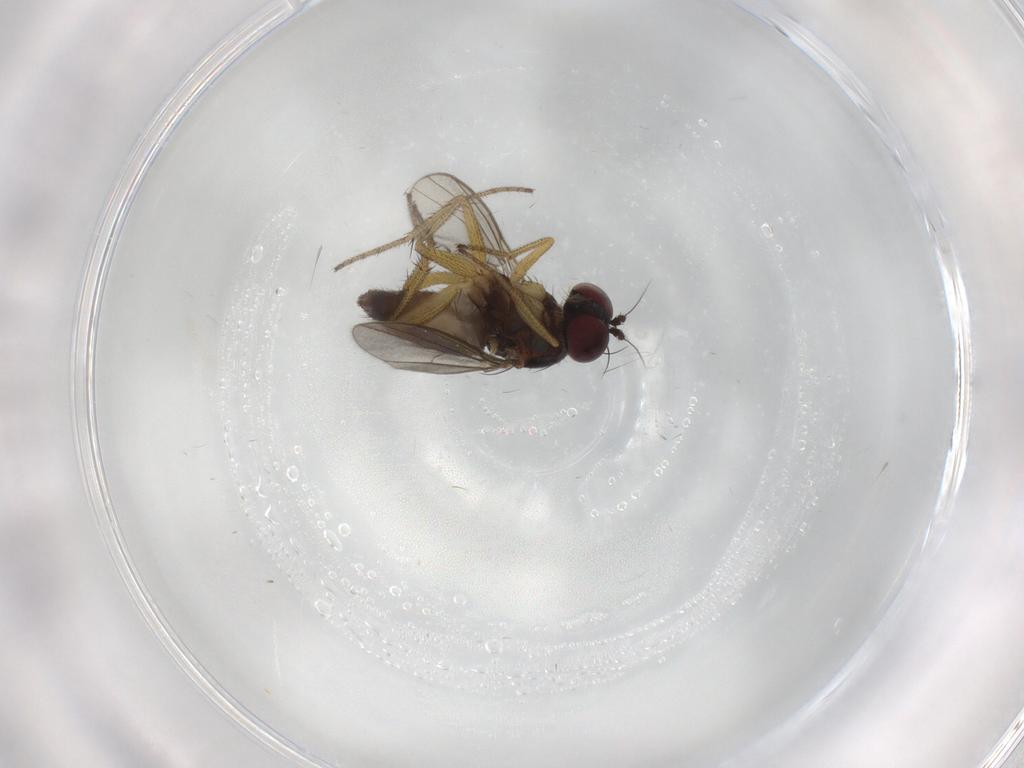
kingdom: Animalia
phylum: Arthropoda
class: Insecta
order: Diptera
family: Dolichopodidae
